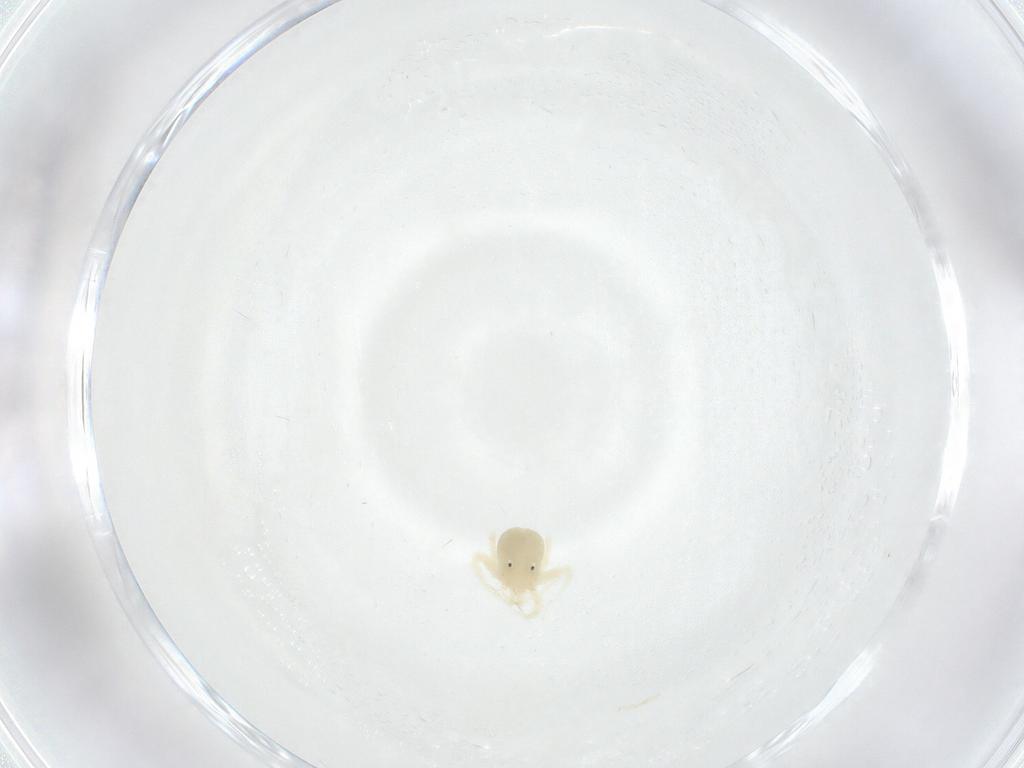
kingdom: Animalia
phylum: Arthropoda
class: Arachnida
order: Trombidiformes
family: Anystidae
